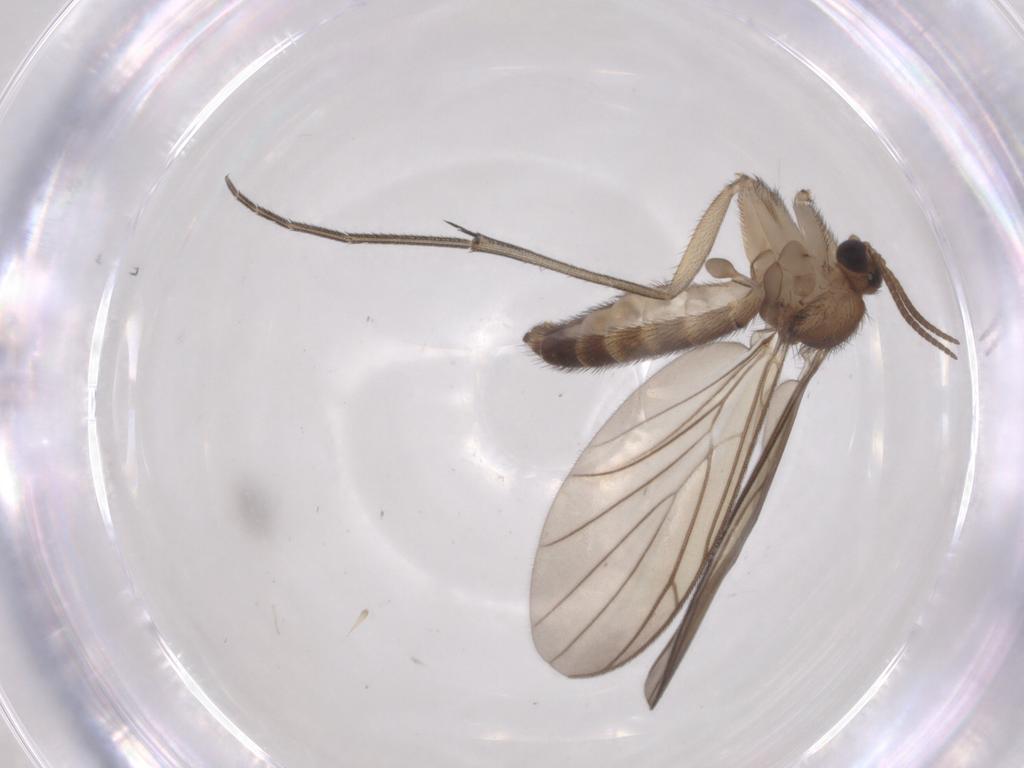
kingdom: Animalia
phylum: Arthropoda
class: Insecta
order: Diptera
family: Keroplatidae
